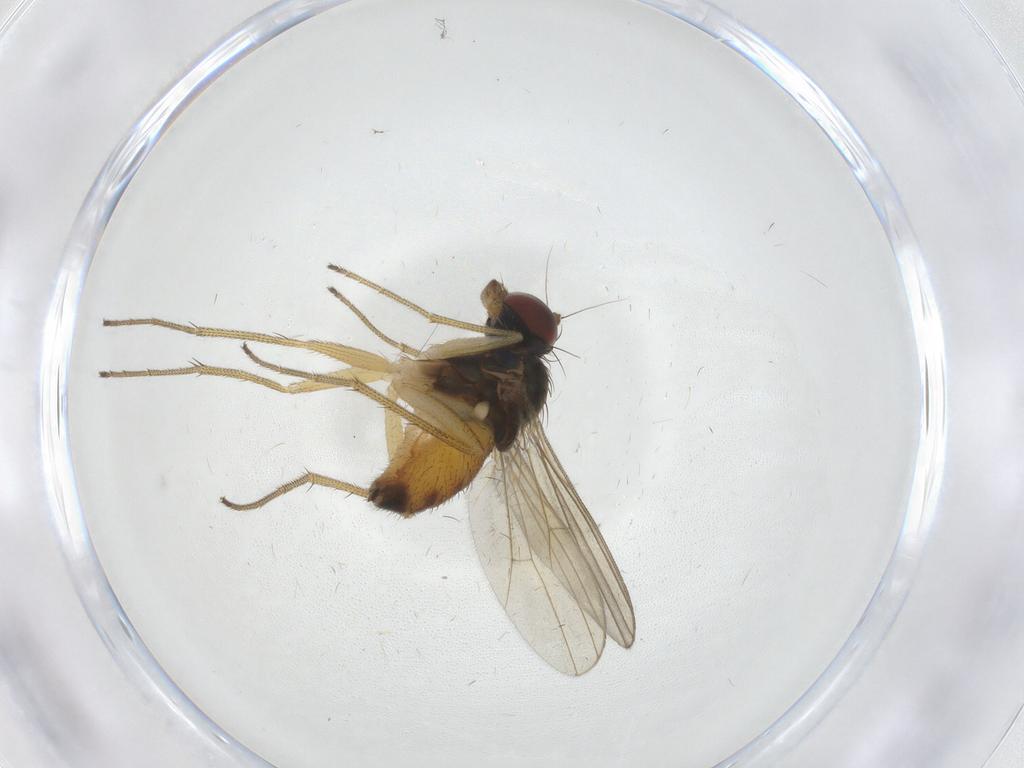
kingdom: Animalia
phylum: Arthropoda
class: Insecta
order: Diptera
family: Dolichopodidae
